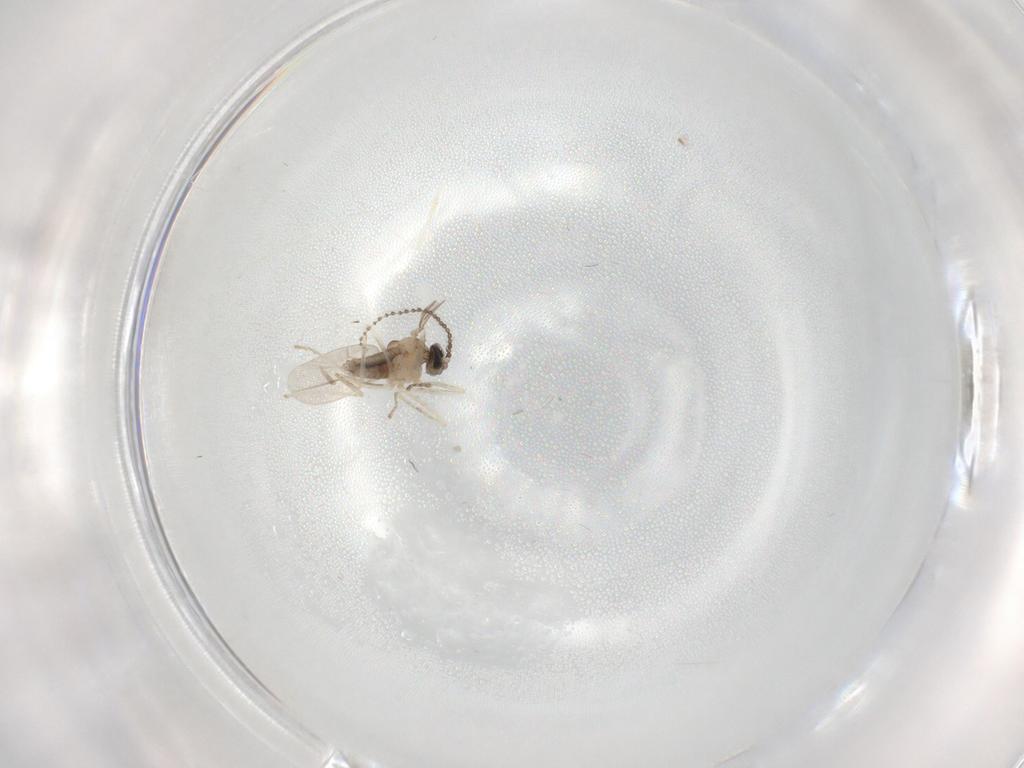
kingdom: Animalia
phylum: Arthropoda
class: Insecta
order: Diptera
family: Cecidomyiidae
